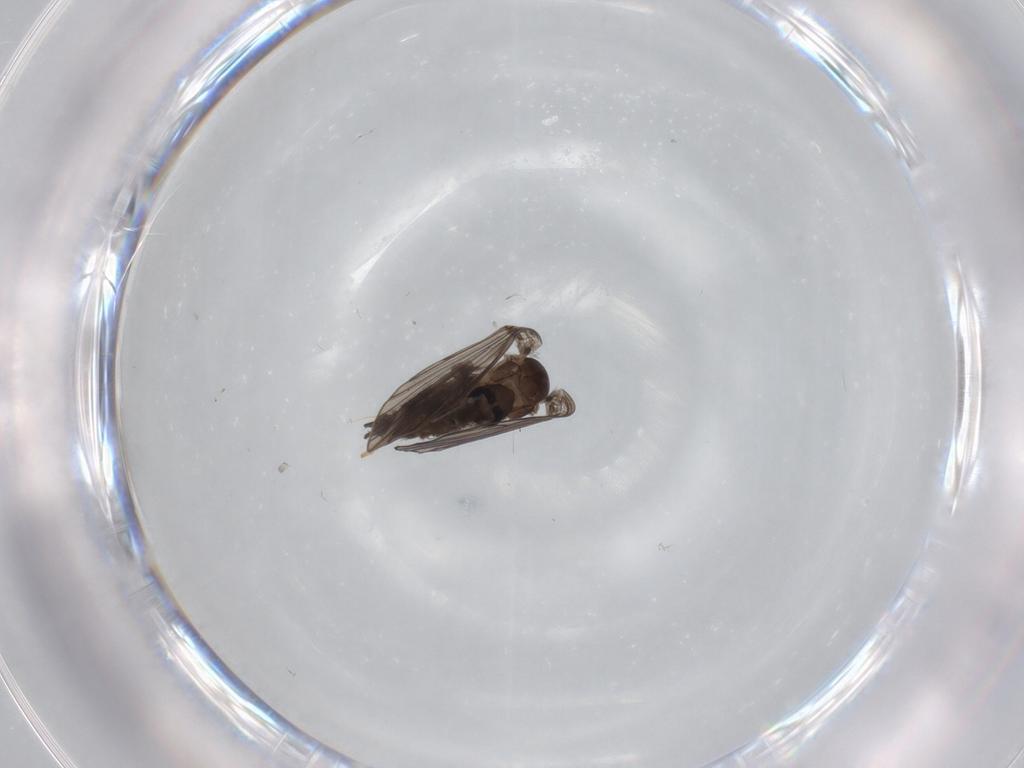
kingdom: Animalia
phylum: Arthropoda
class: Insecta
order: Diptera
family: Psychodidae
